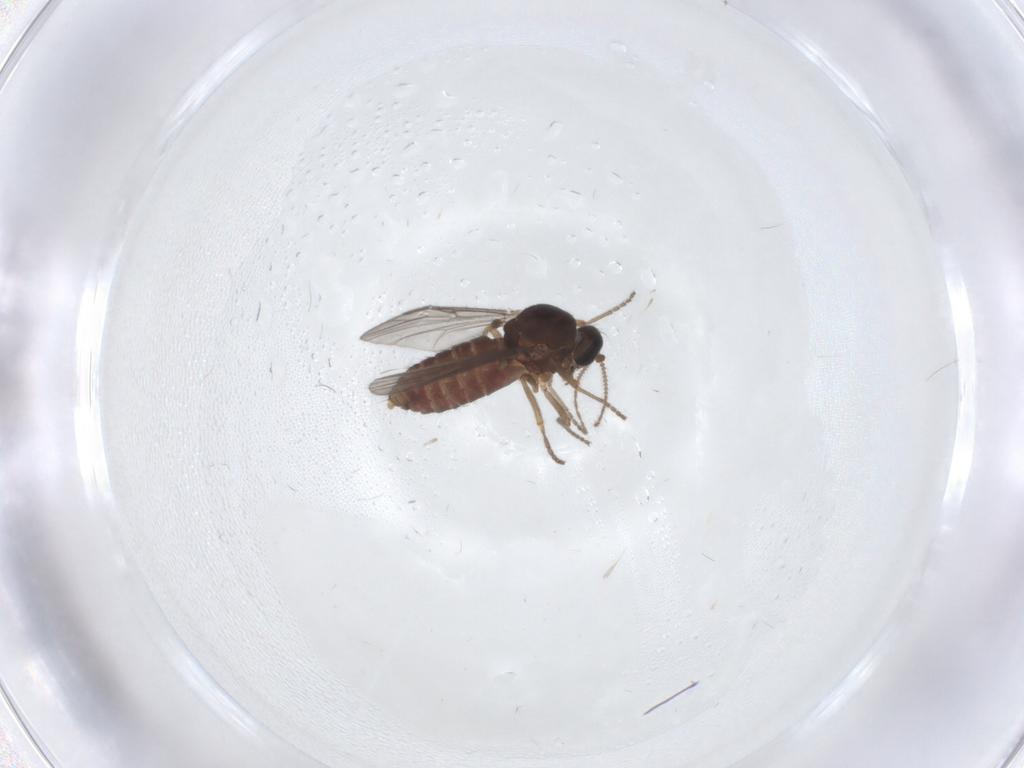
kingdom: Animalia
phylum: Arthropoda
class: Insecta
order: Diptera
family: Ceratopogonidae
